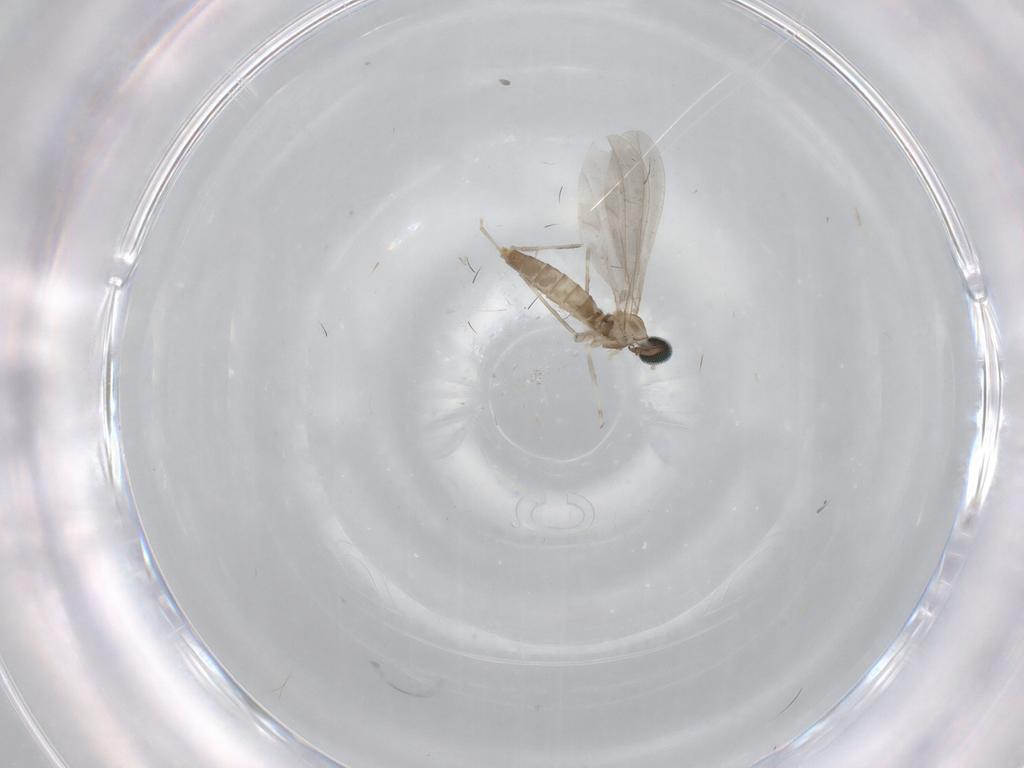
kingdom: Animalia
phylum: Arthropoda
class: Insecta
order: Diptera
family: Cecidomyiidae
